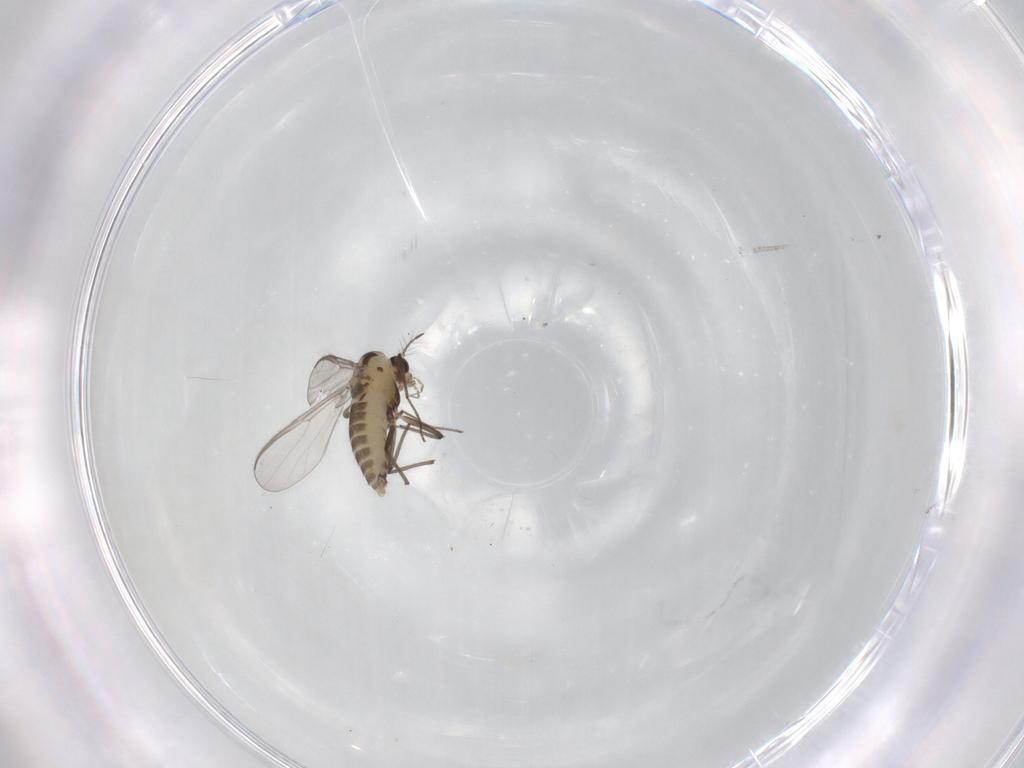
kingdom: Animalia
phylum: Arthropoda
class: Insecta
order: Diptera
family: Chironomidae
